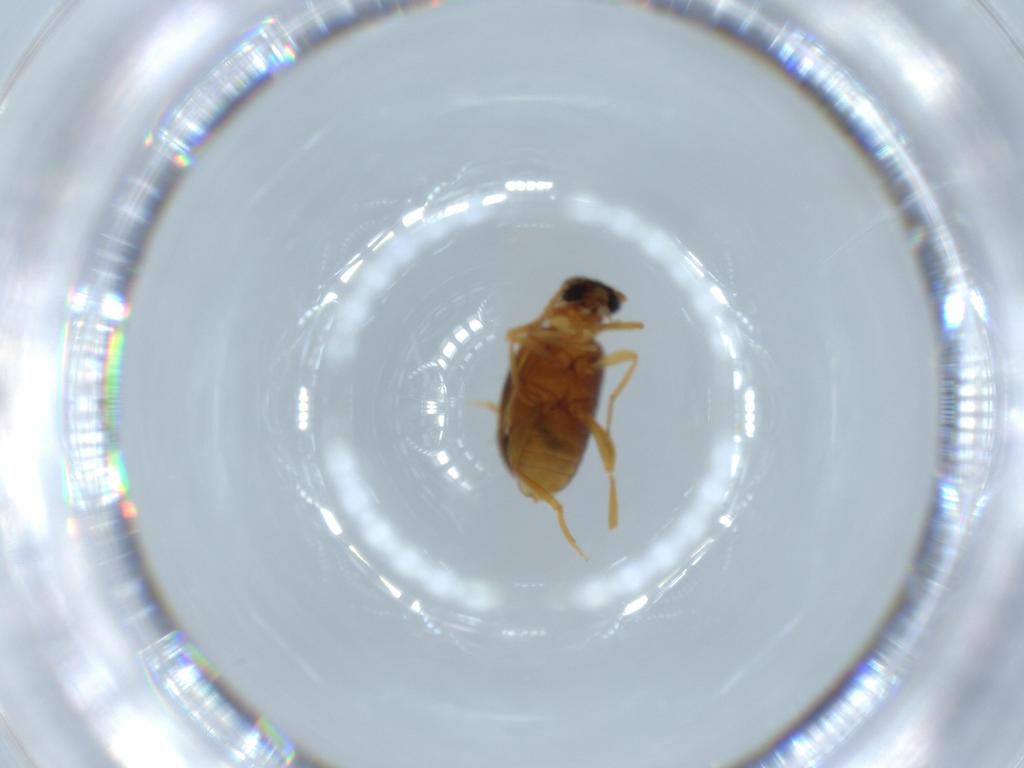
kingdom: Animalia
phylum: Arthropoda
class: Insecta
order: Coleoptera
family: Aderidae
